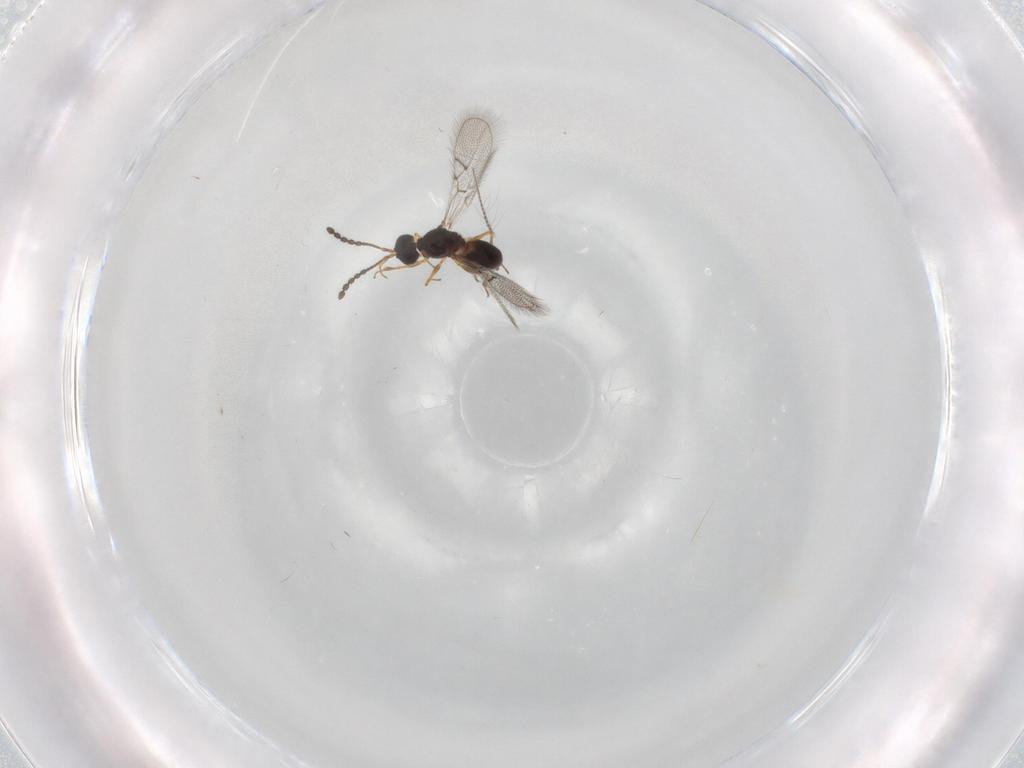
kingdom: Animalia
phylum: Arthropoda
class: Insecta
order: Hymenoptera
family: Figitidae
